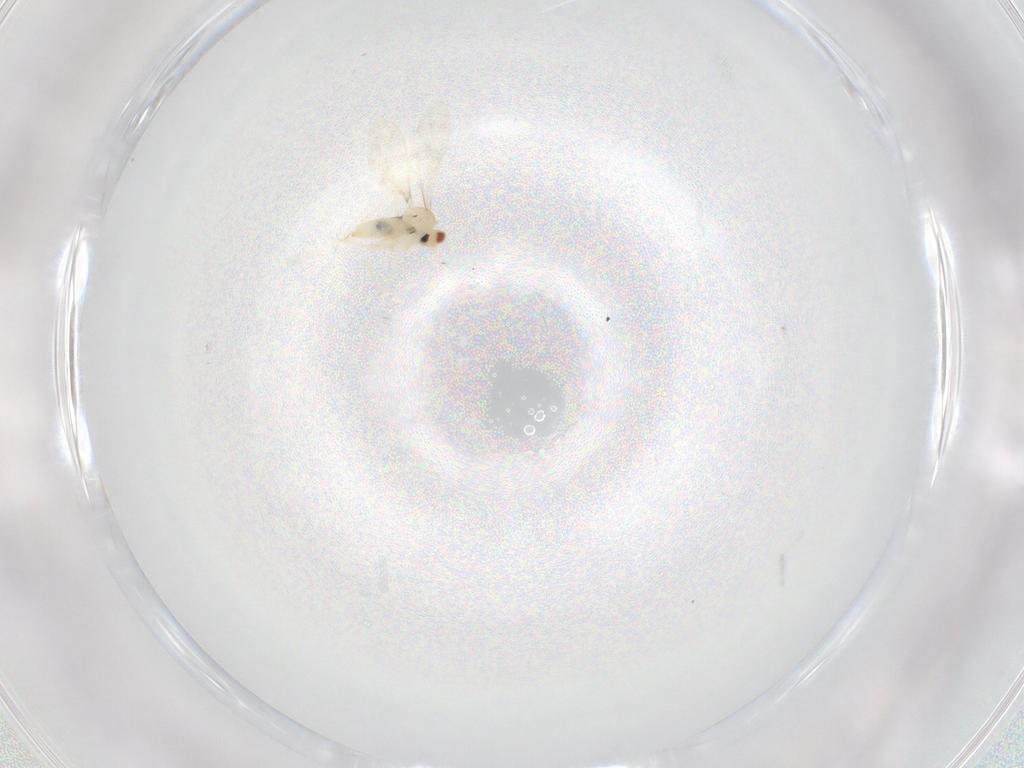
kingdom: Animalia
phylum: Arthropoda
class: Insecta
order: Diptera
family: Cecidomyiidae
